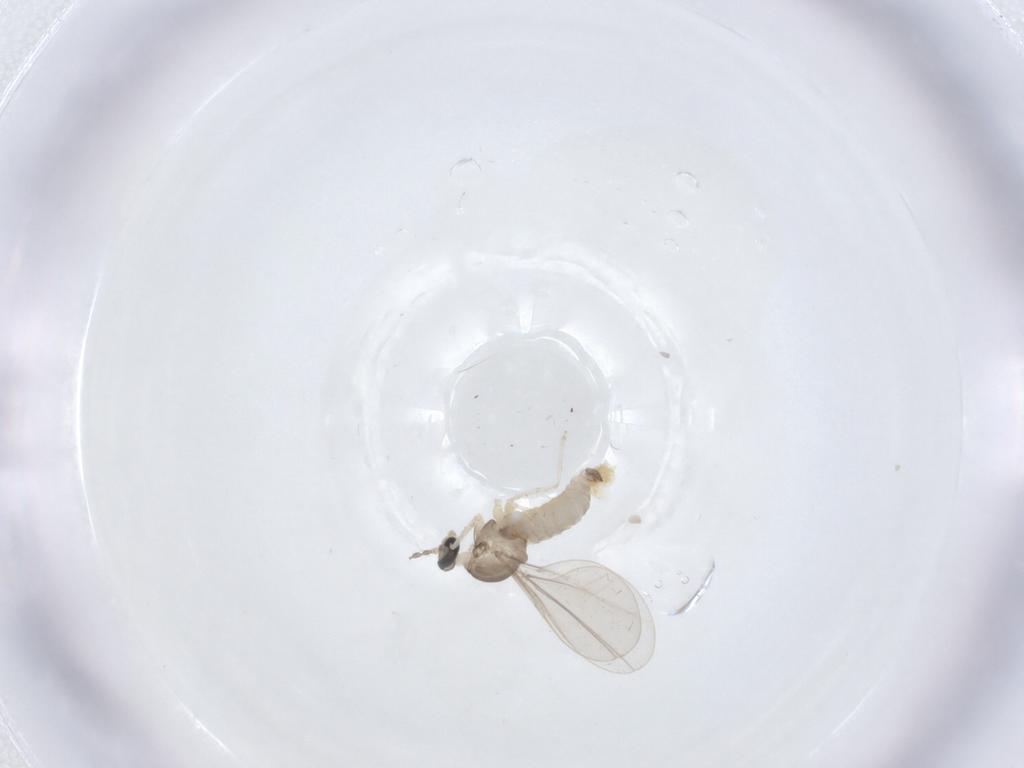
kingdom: Animalia
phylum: Arthropoda
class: Insecta
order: Diptera
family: Cecidomyiidae
